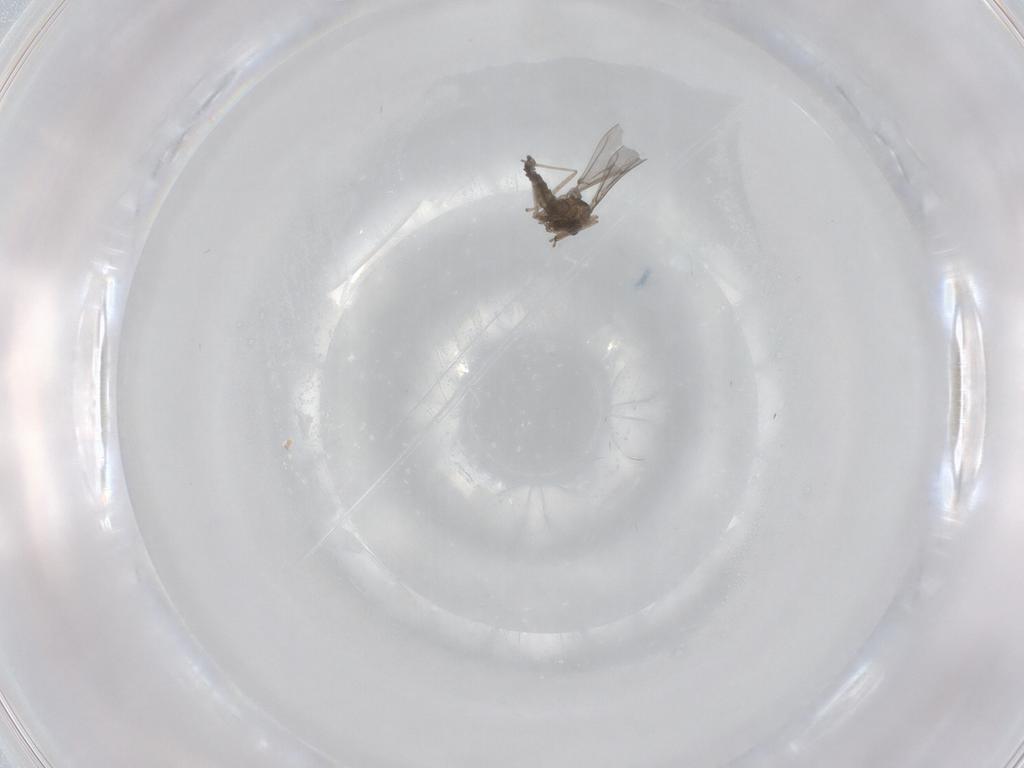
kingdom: Animalia
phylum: Arthropoda
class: Insecta
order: Diptera
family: Cecidomyiidae
